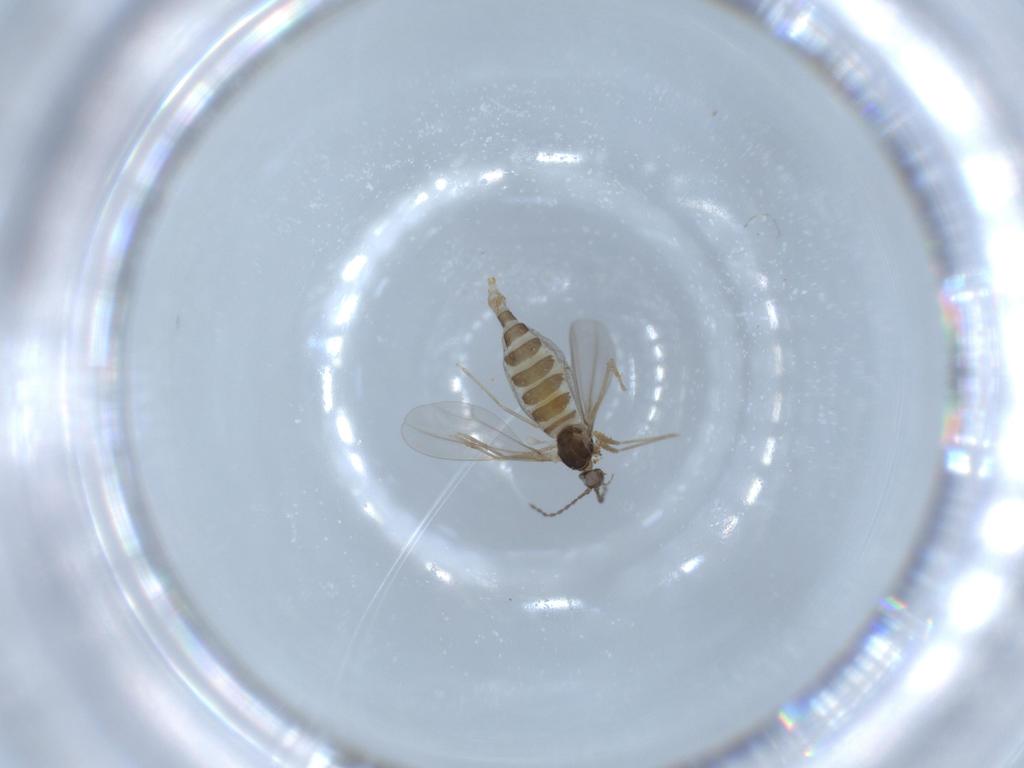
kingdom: Animalia
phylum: Arthropoda
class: Insecta
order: Diptera
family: Cecidomyiidae
